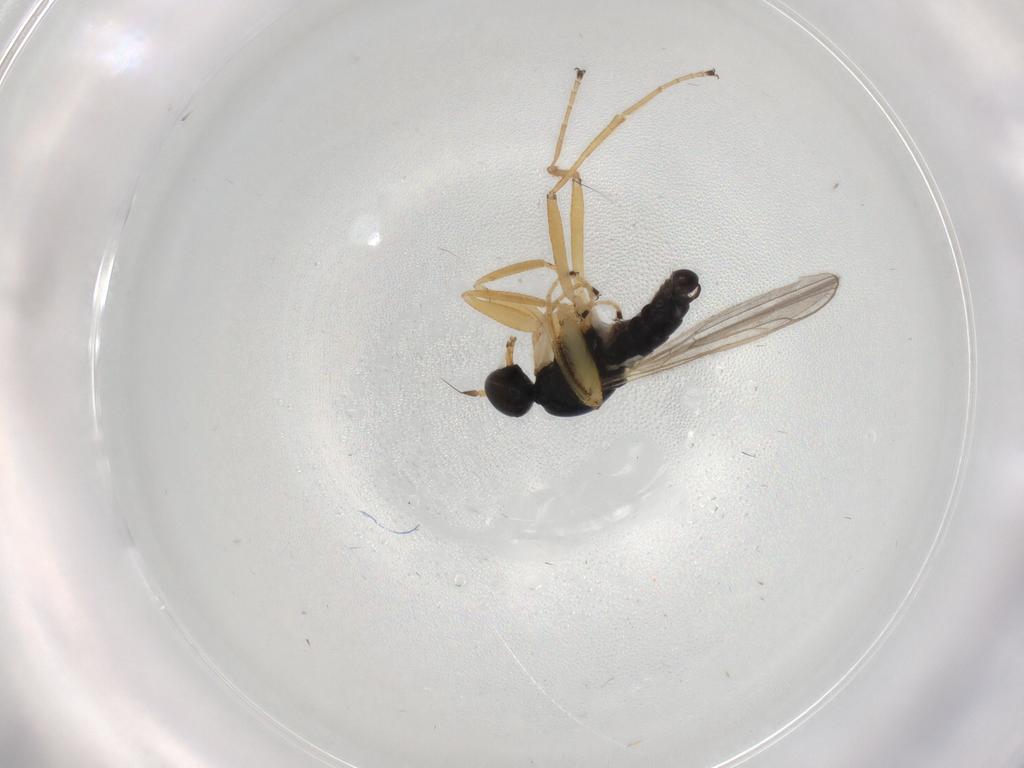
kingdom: Animalia
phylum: Arthropoda
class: Insecta
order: Diptera
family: Hybotidae
